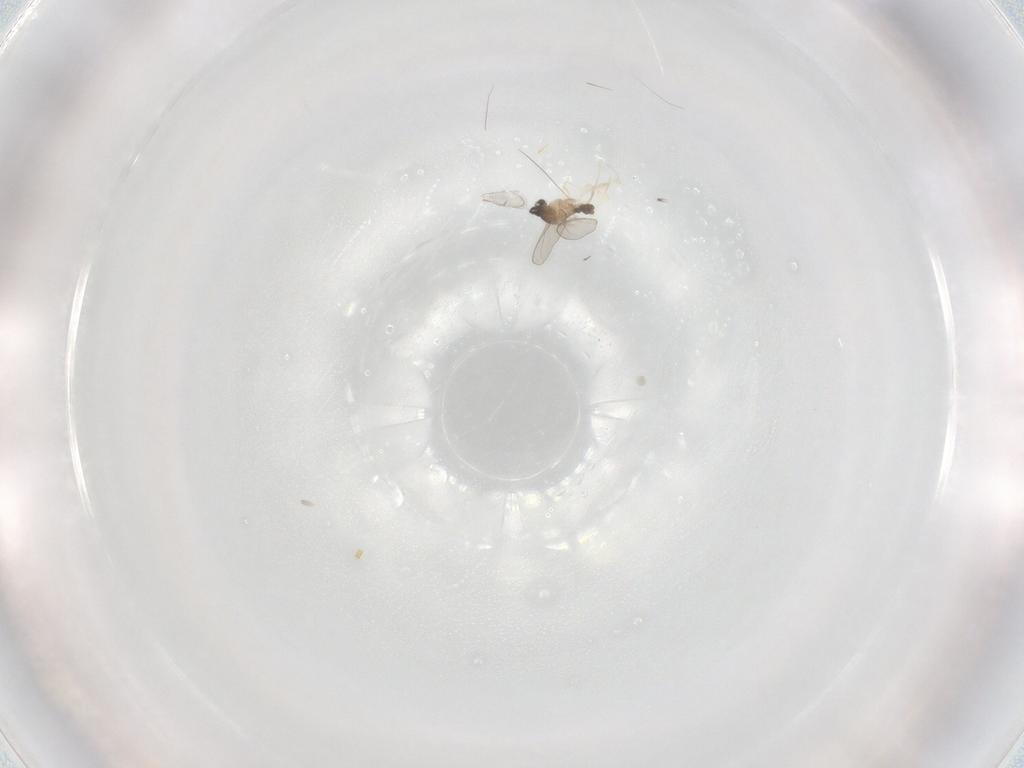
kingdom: Animalia
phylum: Arthropoda
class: Insecta
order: Diptera
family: Cecidomyiidae
